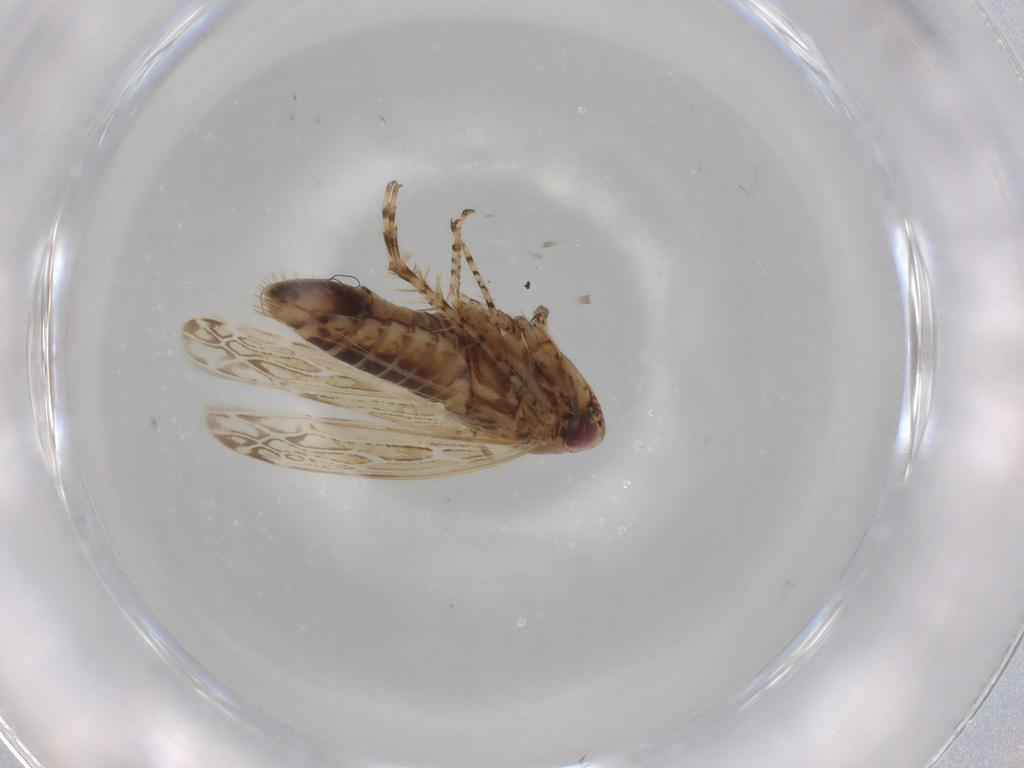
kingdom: Animalia
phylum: Arthropoda
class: Insecta
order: Hemiptera
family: Cicadellidae
